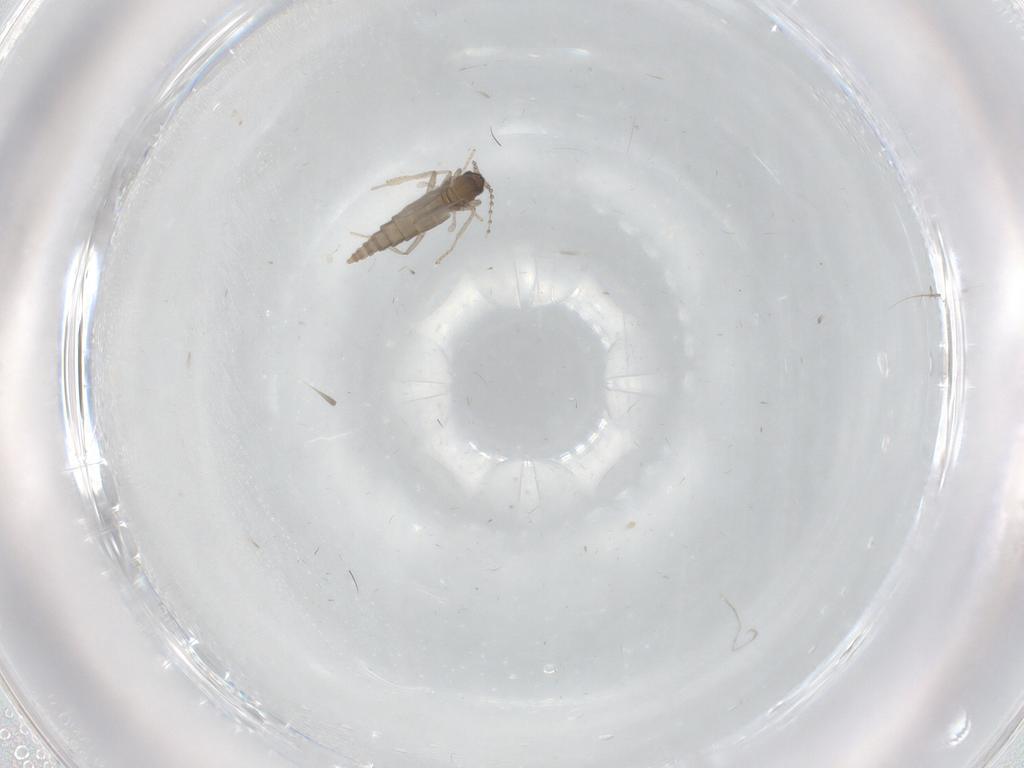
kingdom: Animalia
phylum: Arthropoda
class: Insecta
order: Diptera
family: Cecidomyiidae
